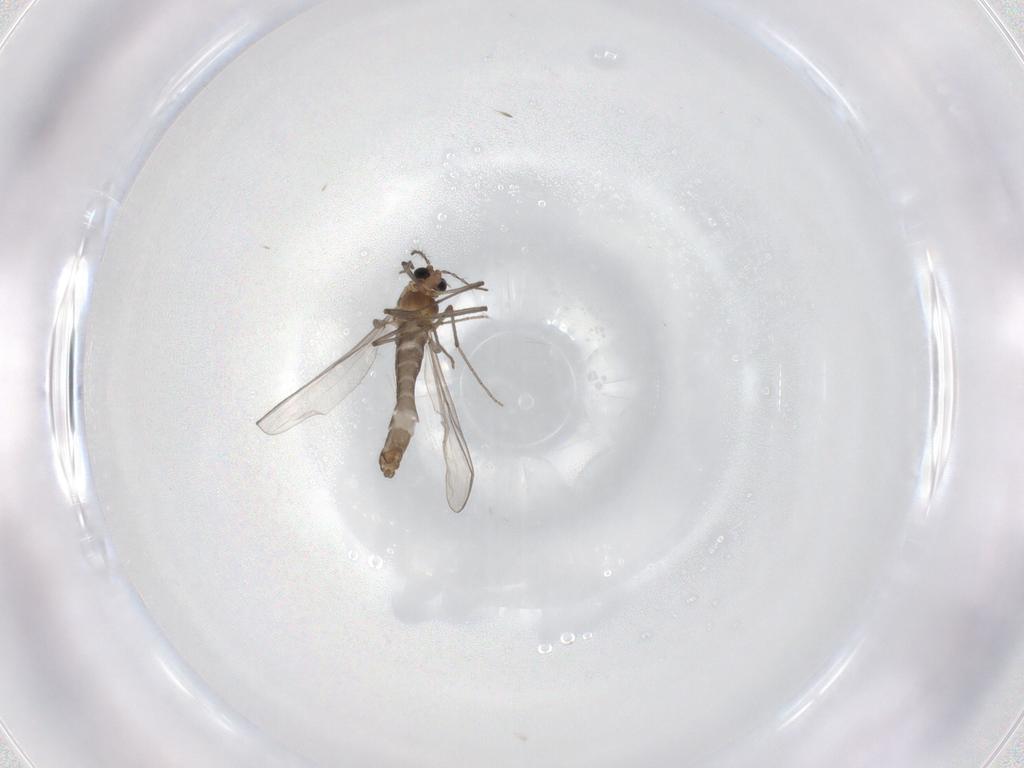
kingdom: Animalia
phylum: Arthropoda
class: Insecta
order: Diptera
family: Chironomidae
